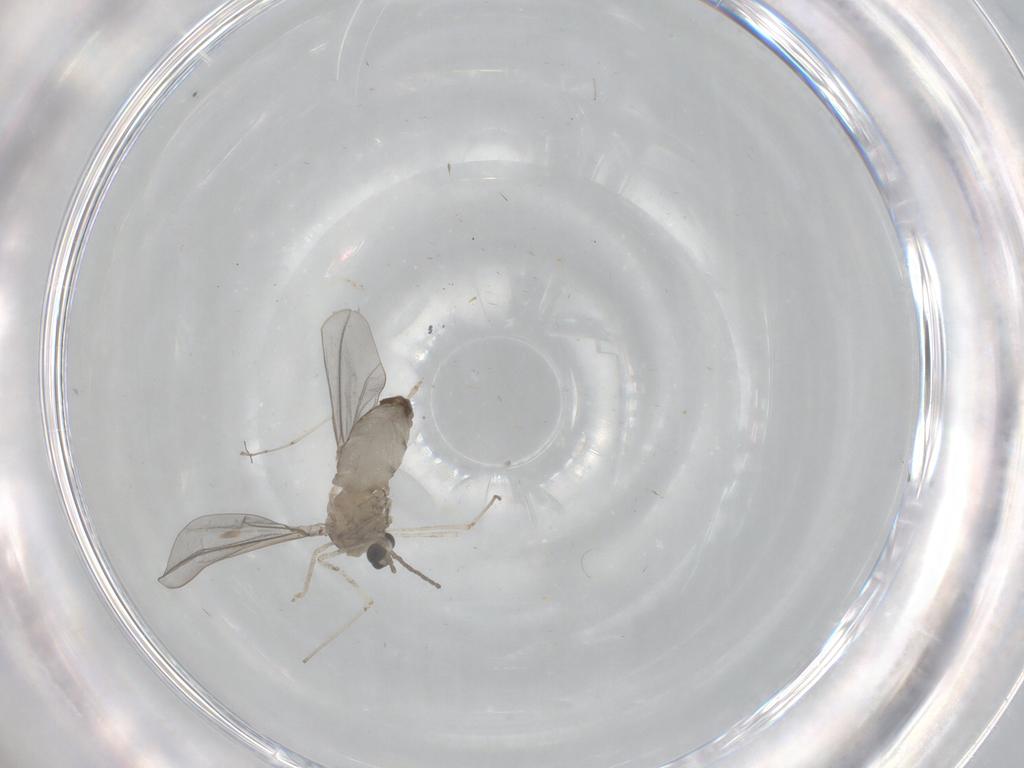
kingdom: Animalia
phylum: Arthropoda
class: Insecta
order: Diptera
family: Cecidomyiidae
